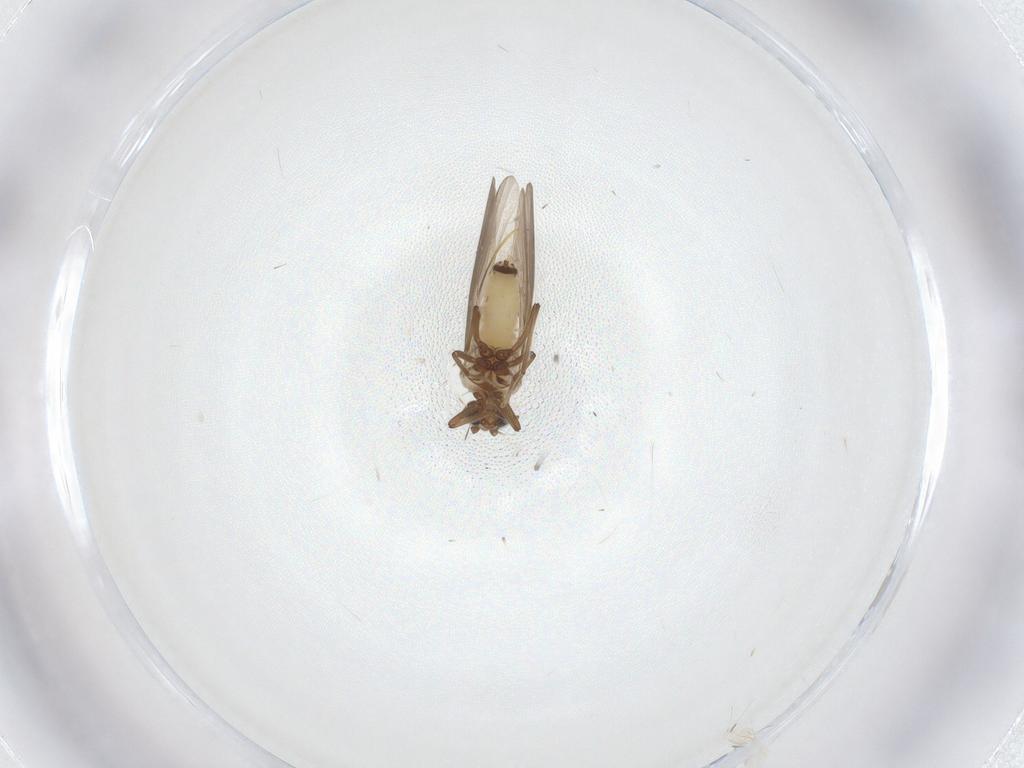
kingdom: Animalia
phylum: Arthropoda
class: Insecta
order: Neuroptera
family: Coniopterygidae
